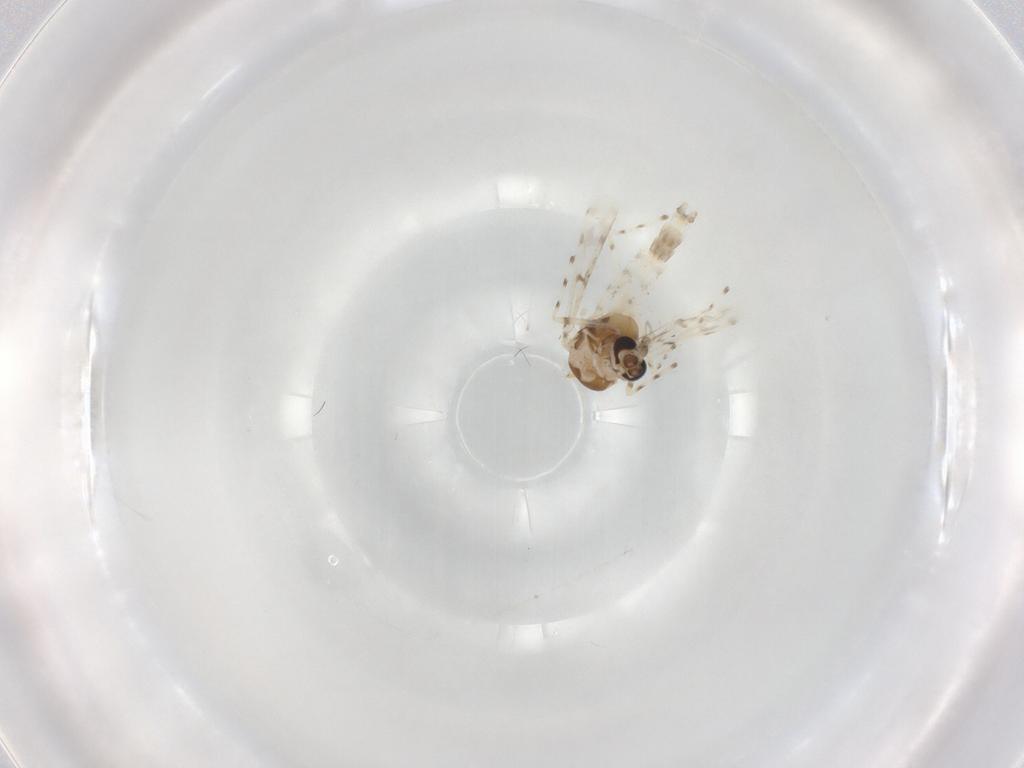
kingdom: Animalia
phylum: Arthropoda
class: Insecta
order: Diptera
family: Chironomidae
